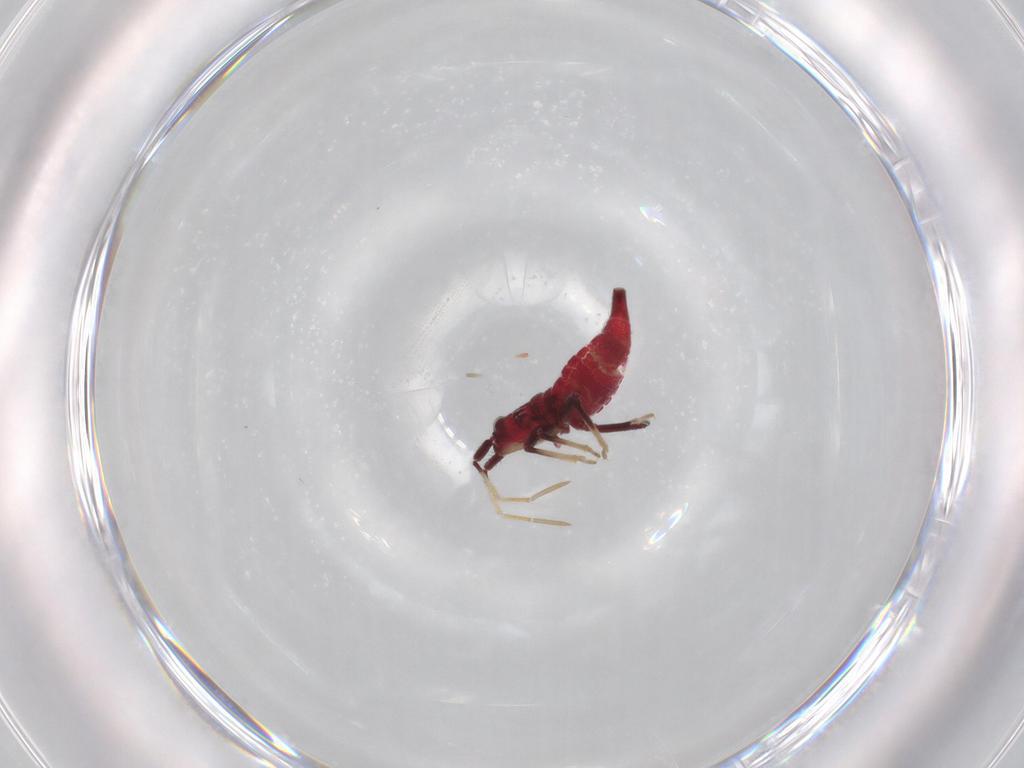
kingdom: Animalia
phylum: Arthropoda
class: Insecta
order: Hemiptera
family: Miridae
